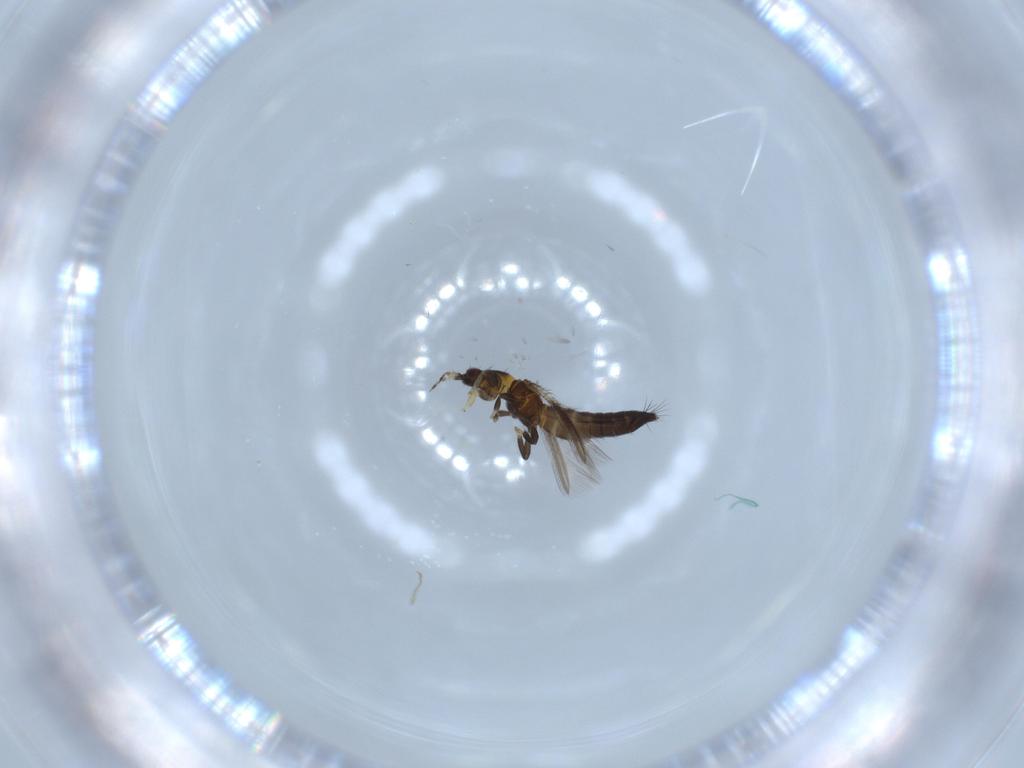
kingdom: Animalia
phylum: Arthropoda
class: Insecta
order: Thysanoptera
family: Thripidae
